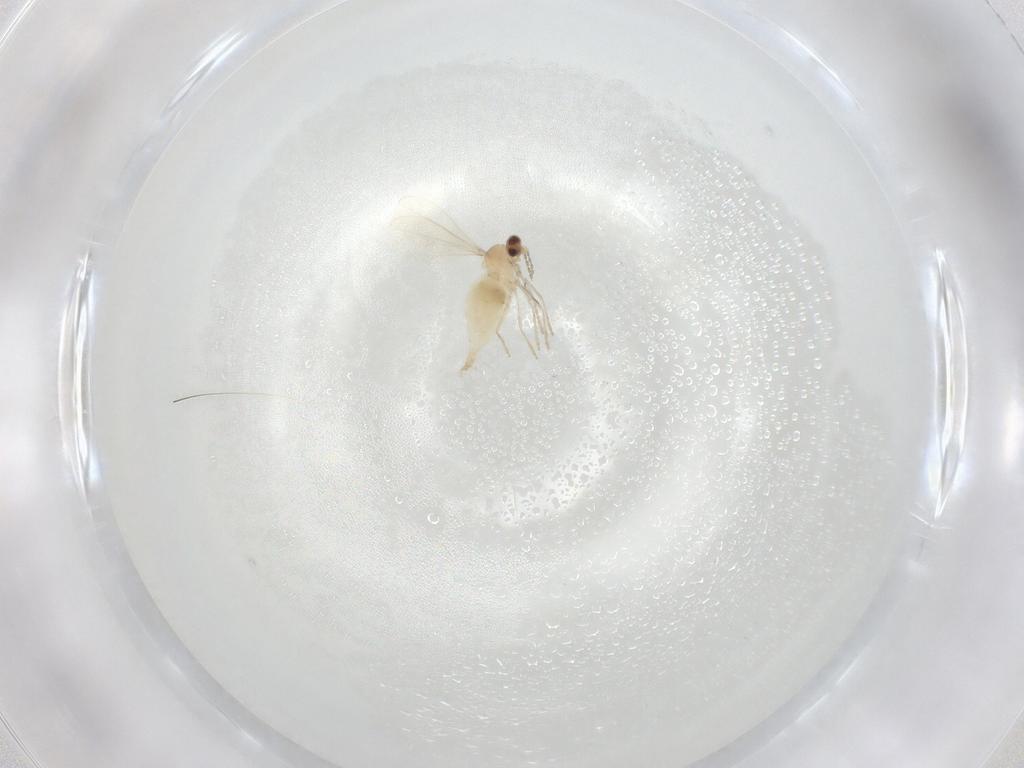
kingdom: Animalia
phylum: Arthropoda
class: Insecta
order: Diptera
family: Cecidomyiidae
